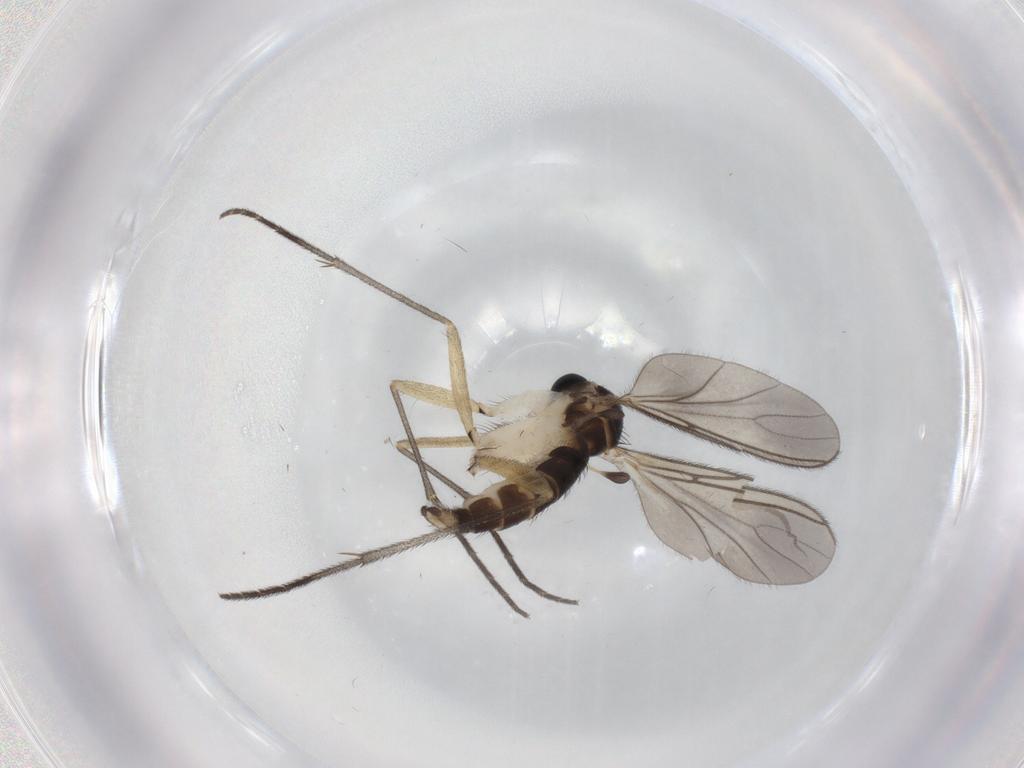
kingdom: Animalia
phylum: Arthropoda
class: Insecta
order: Diptera
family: Sciaridae
